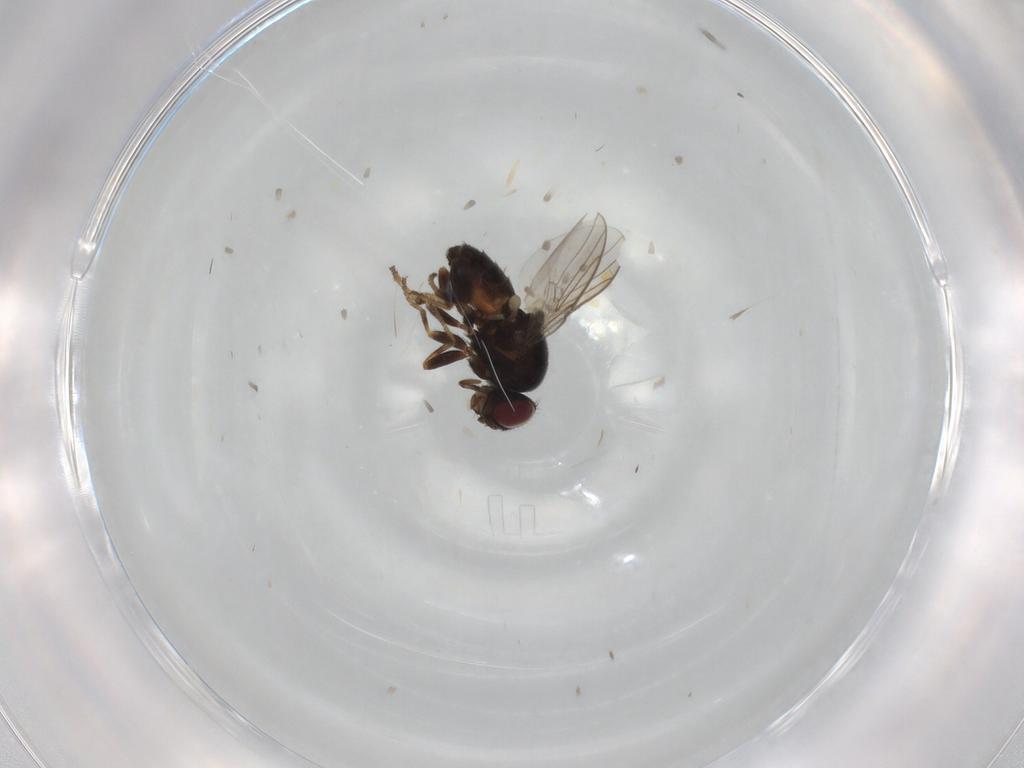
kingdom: Animalia
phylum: Arthropoda
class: Insecta
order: Diptera
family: Chloropidae
